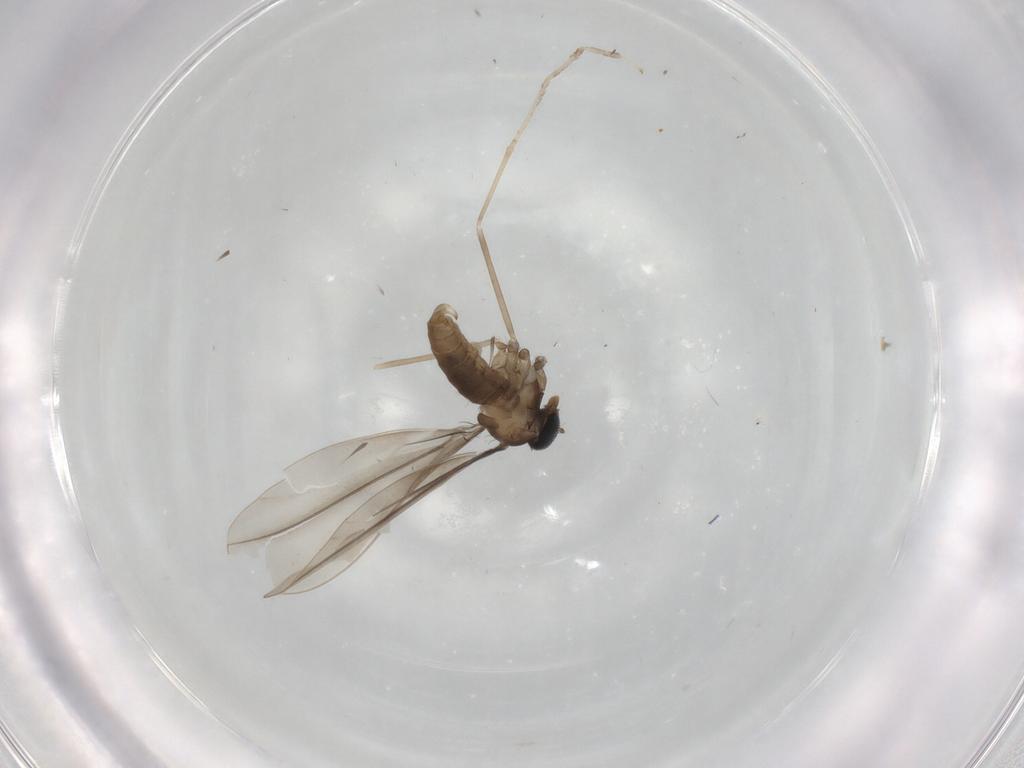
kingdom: Animalia
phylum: Arthropoda
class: Insecta
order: Diptera
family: Cecidomyiidae
